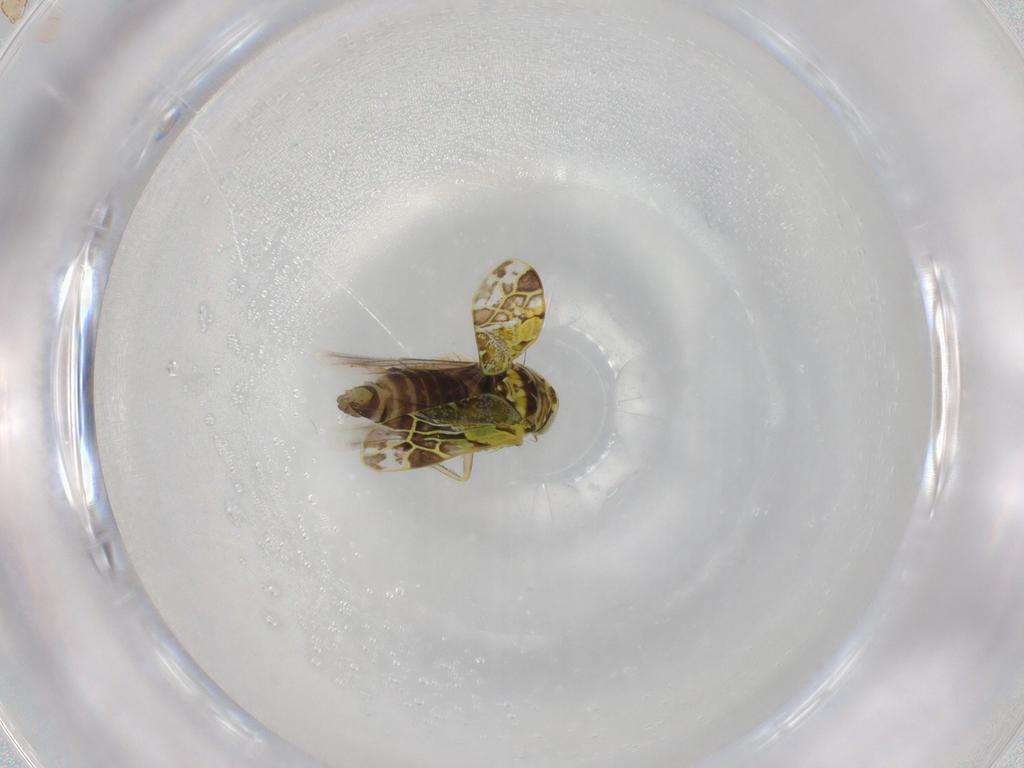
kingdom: Animalia
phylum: Arthropoda
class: Insecta
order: Hemiptera
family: Cicadellidae
